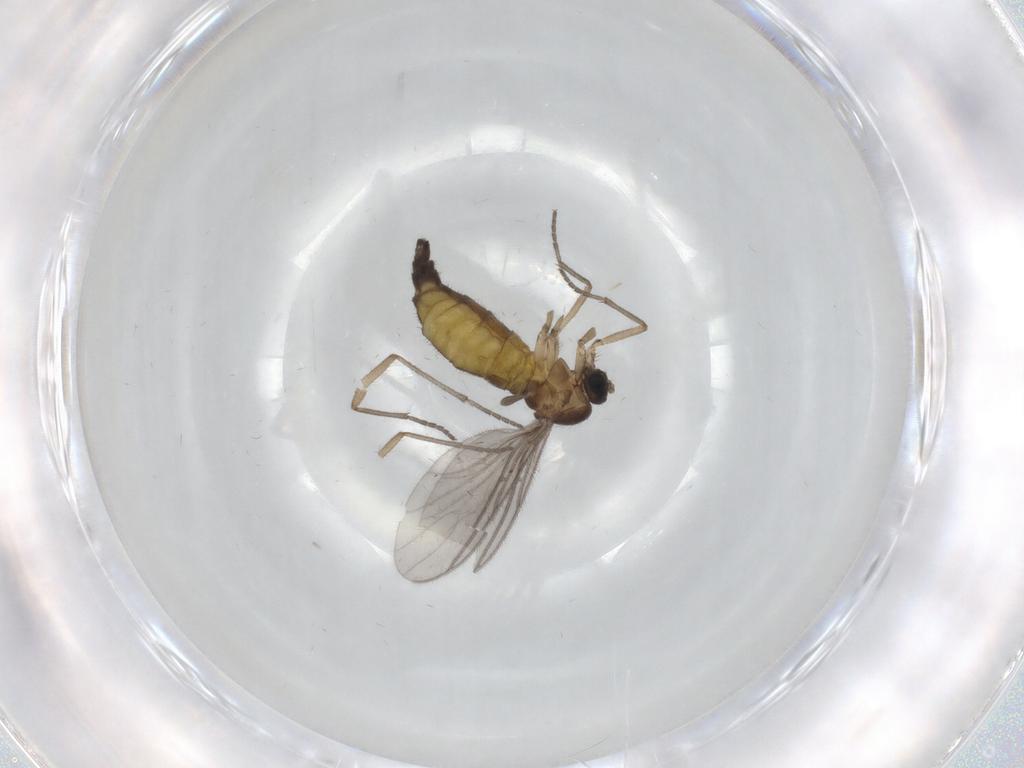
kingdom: Animalia
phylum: Arthropoda
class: Insecta
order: Diptera
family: Sciaridae
